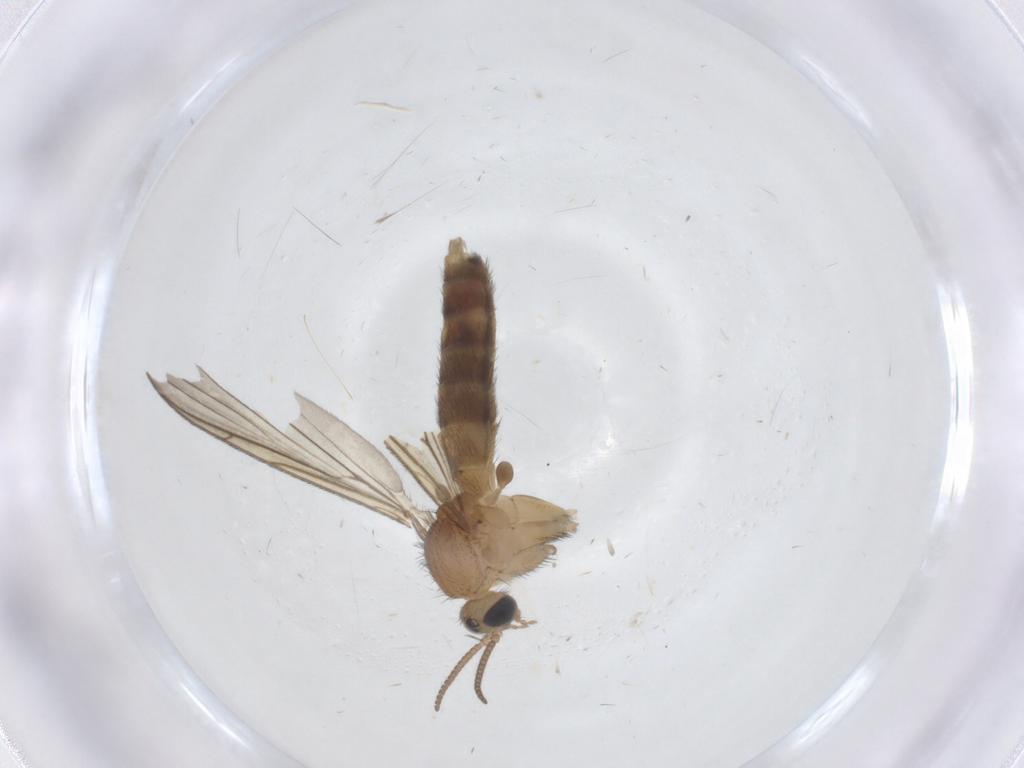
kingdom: Animalia
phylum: Arthropoda
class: Insecta
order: Diptera
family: Keroplatidae
